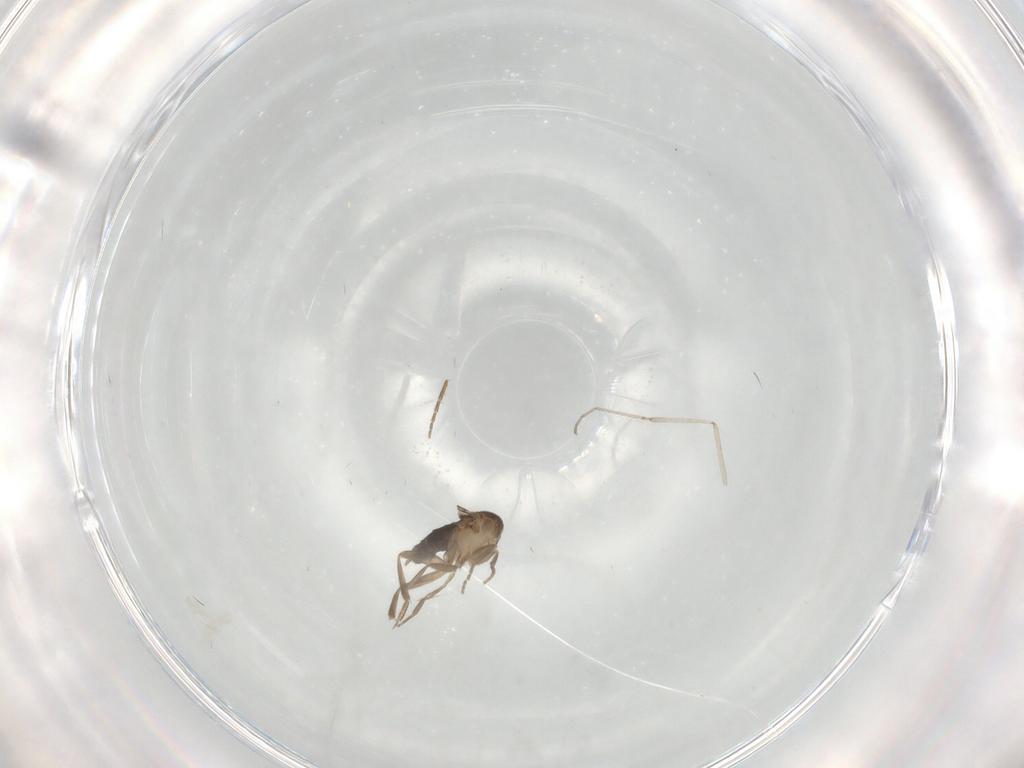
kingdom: Animalia
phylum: Arthropoda
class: Insecta
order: Diptera
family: Cecidomyiidae
